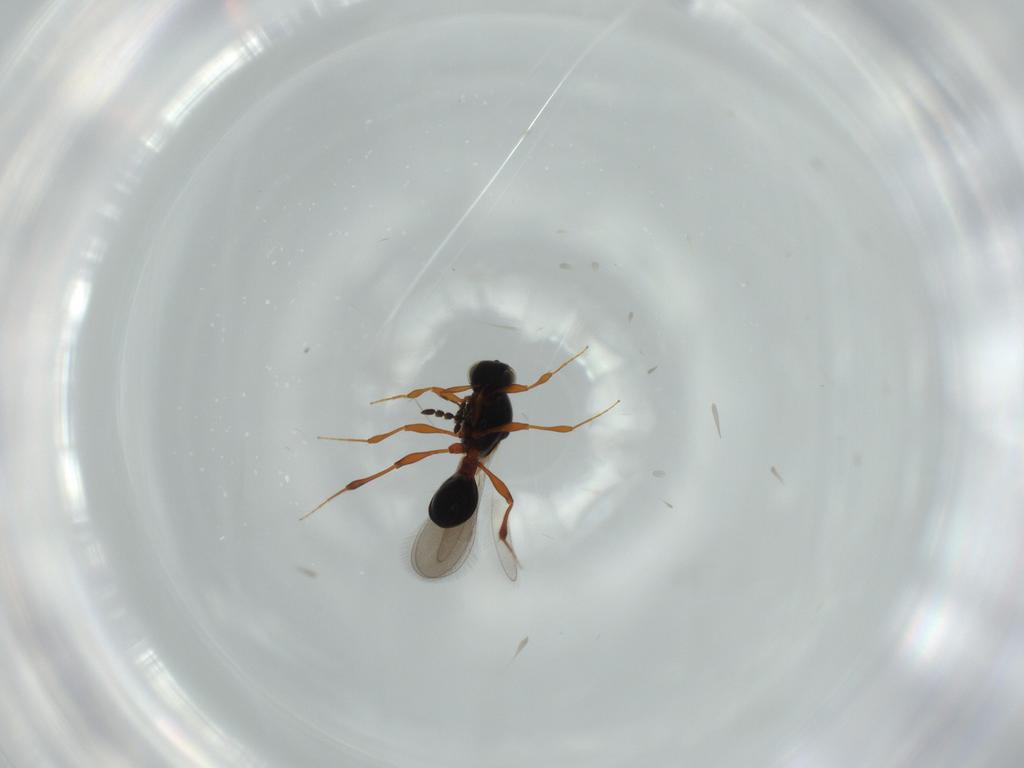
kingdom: Animalia
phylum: Arthropoda
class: Insecta
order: Hymenoptera
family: Platygastridae
